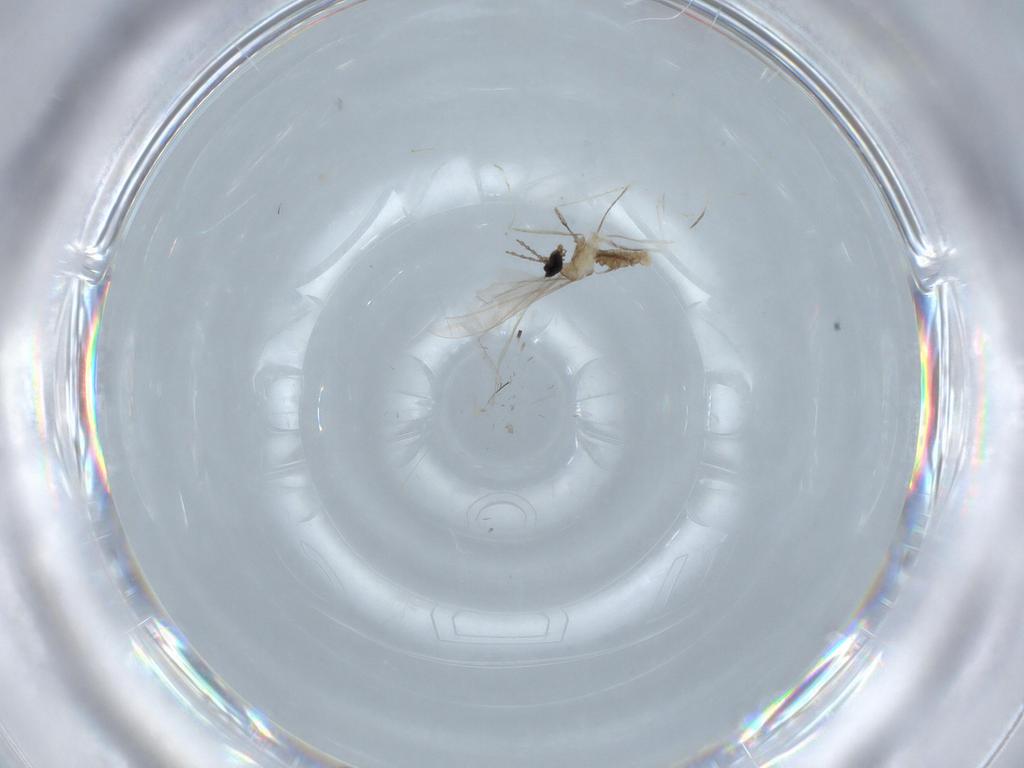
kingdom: Animalia
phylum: Arthropoda
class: Insecta
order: Diptera
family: Cecidomyiidae
